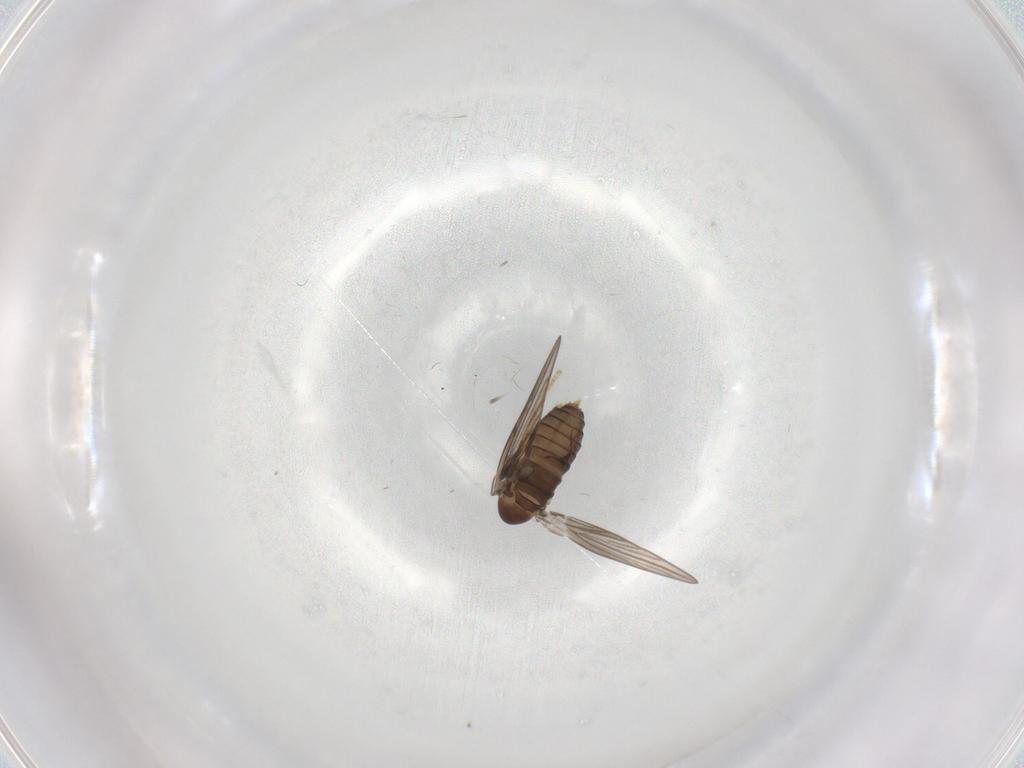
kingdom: Animalia
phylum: Arthropoda
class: Insecta
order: Diptera
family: Psychodidae
